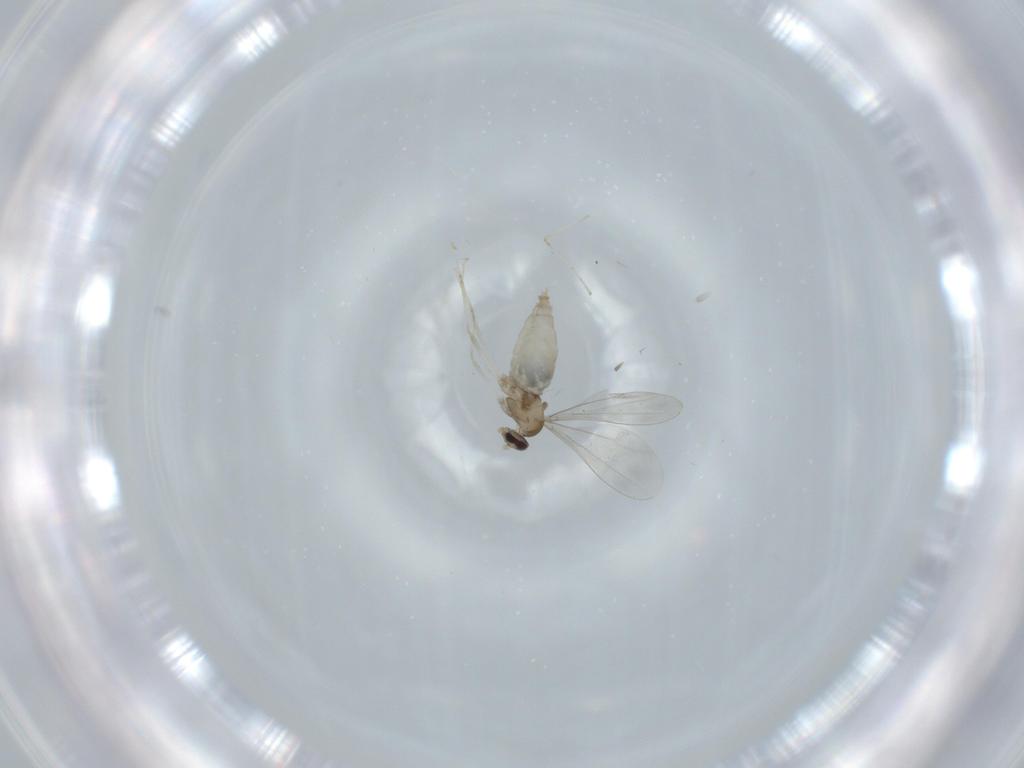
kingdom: Animalia
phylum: Arthropoda
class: Insecta
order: Diptera
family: Cecidomyiidae
